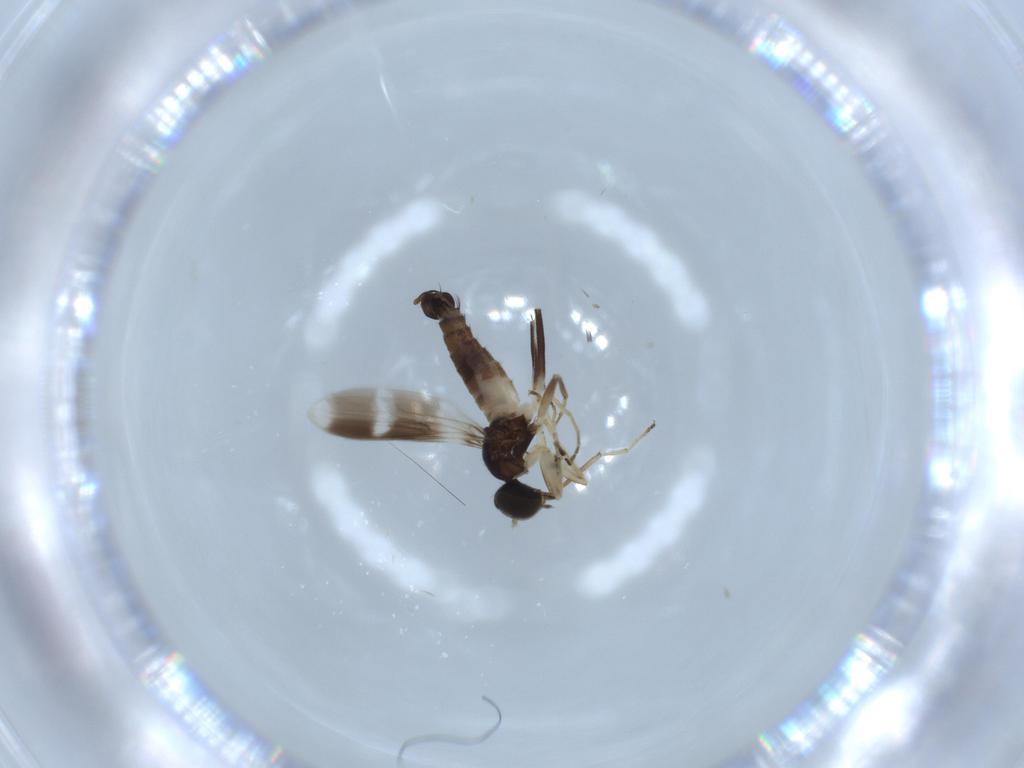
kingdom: Animalia
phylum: Arthropoda
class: Insecta
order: Diptera
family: Hybotidae
